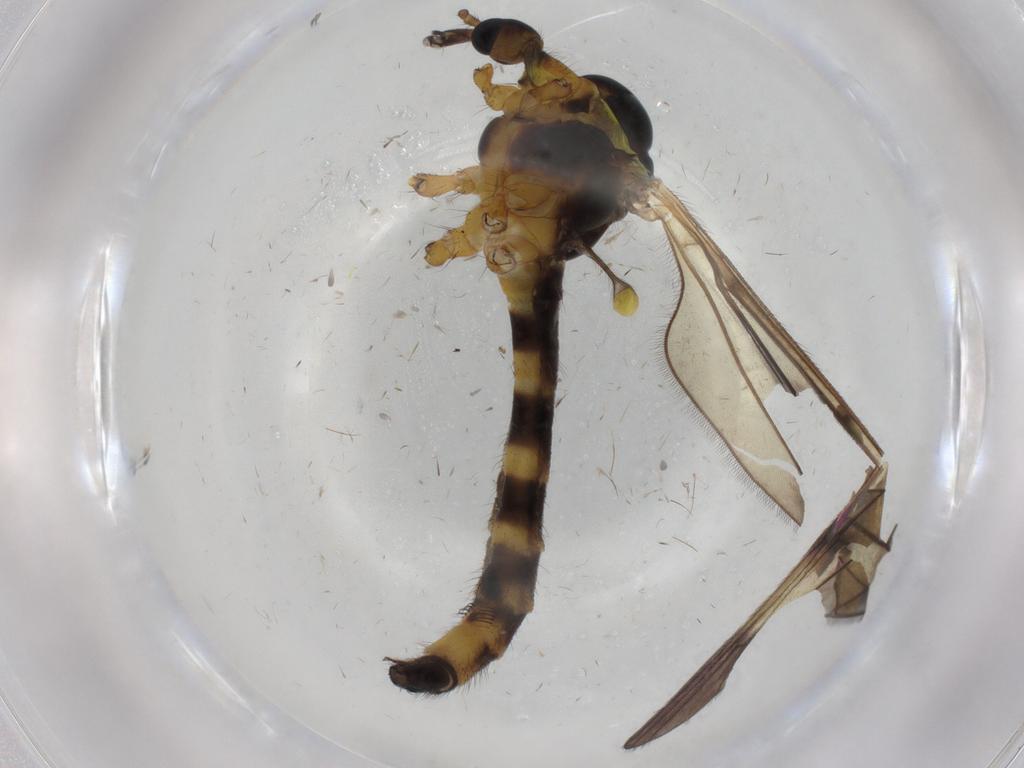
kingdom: Animalia
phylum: Arthropoda
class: Insecta
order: Diptera
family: Limoniidae
